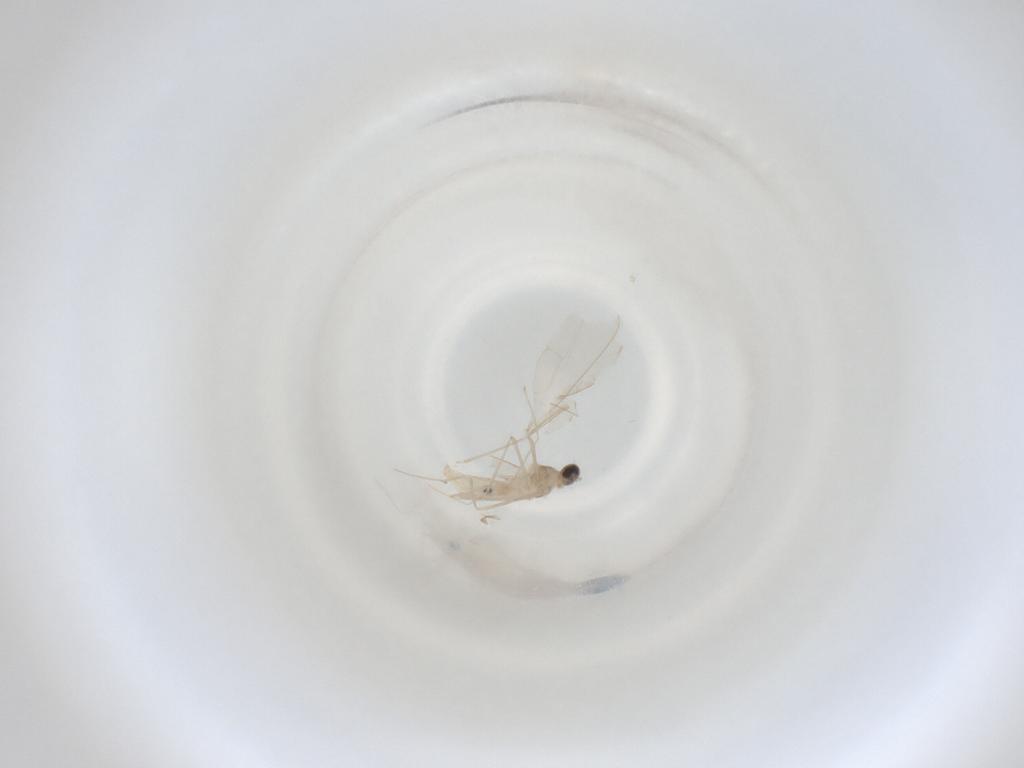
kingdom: Animalia
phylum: Arthropoda
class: Insecta
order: Diptera
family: Cecidomyiidae
